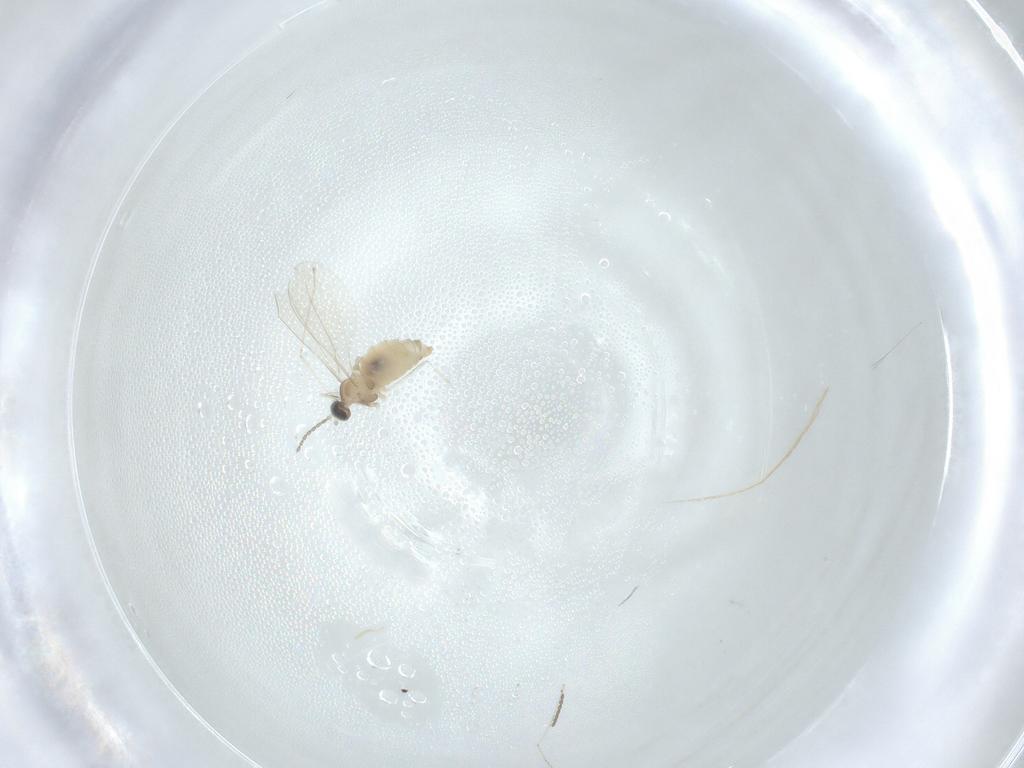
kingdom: Animalia
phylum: Arthropoda
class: Insecta
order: Diptera
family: Cecidomyiidae
